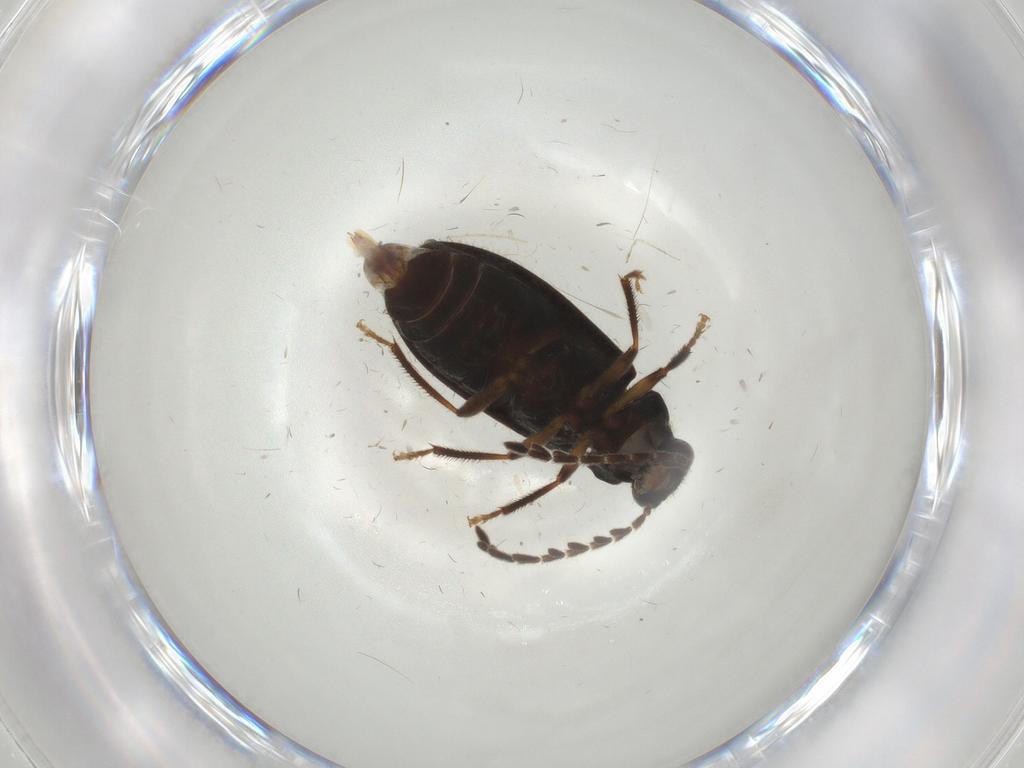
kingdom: Animalia
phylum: Arthropoda
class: Insecta
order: Coleoptera
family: Ptilodactylidae
